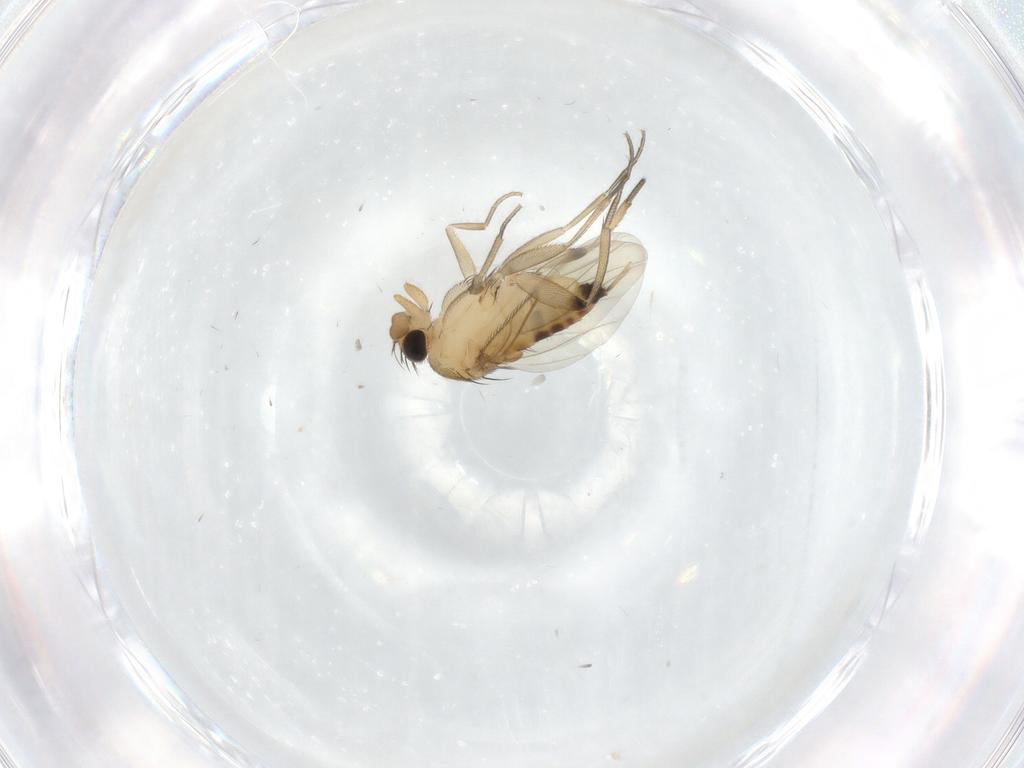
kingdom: Animalia
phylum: Arthropoda
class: Insecta
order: Diptera
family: Phoridae
